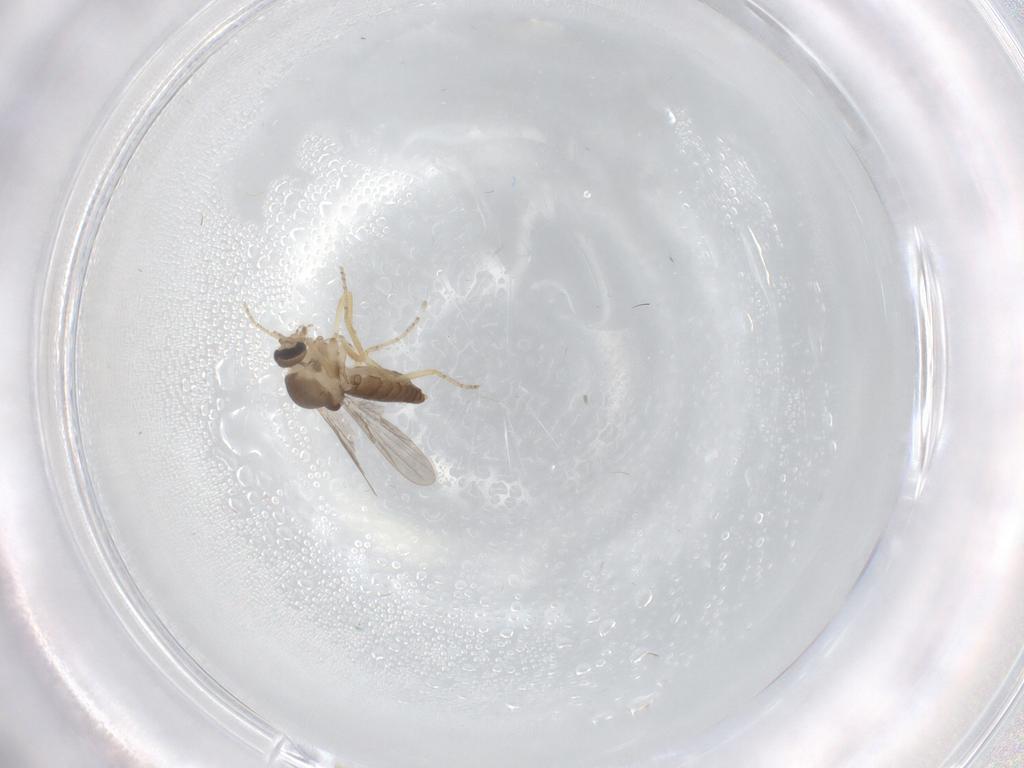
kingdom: Animalia
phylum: Arthropoda
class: Insecta
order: Diptera
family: Ceratopogonidae
